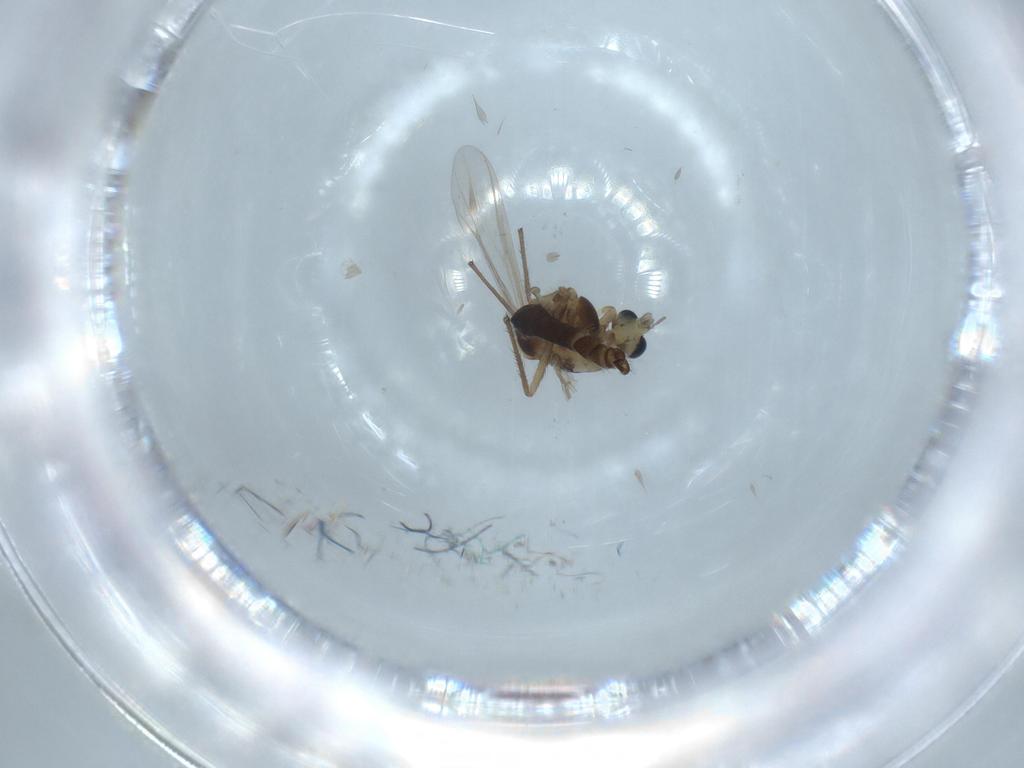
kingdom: Animalia
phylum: Arthropoda
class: Insecta
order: Diptera
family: Chironomidae
